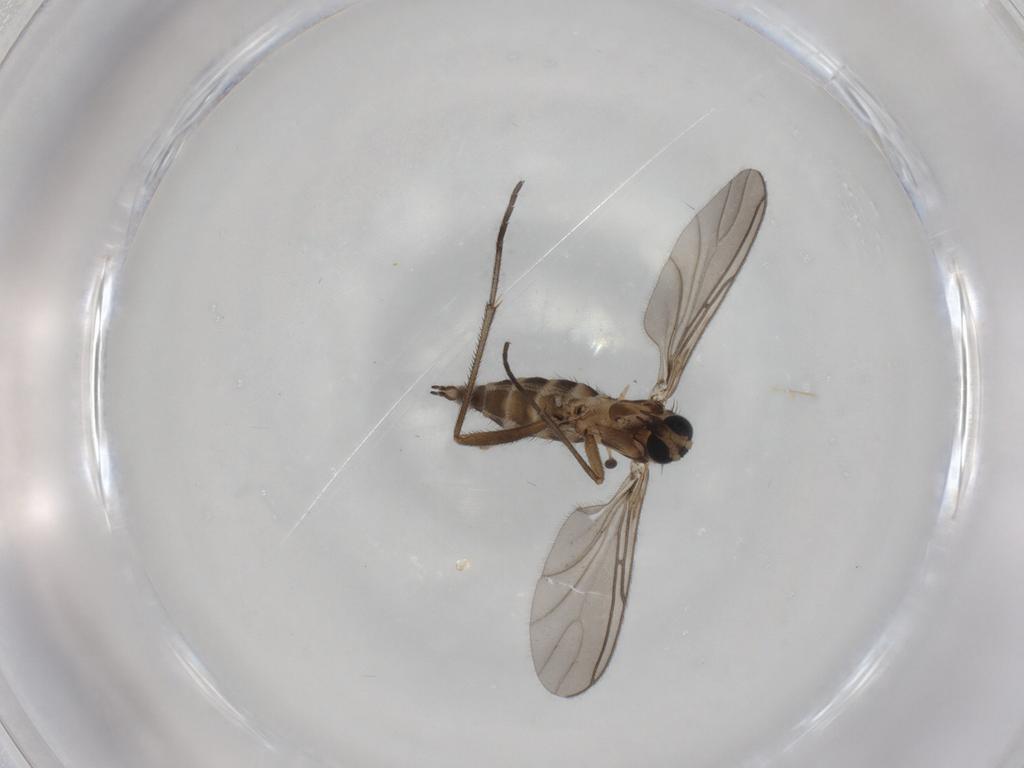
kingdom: Animalia
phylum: Arthropoda
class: Insecta
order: Diptera
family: Sciaridae
